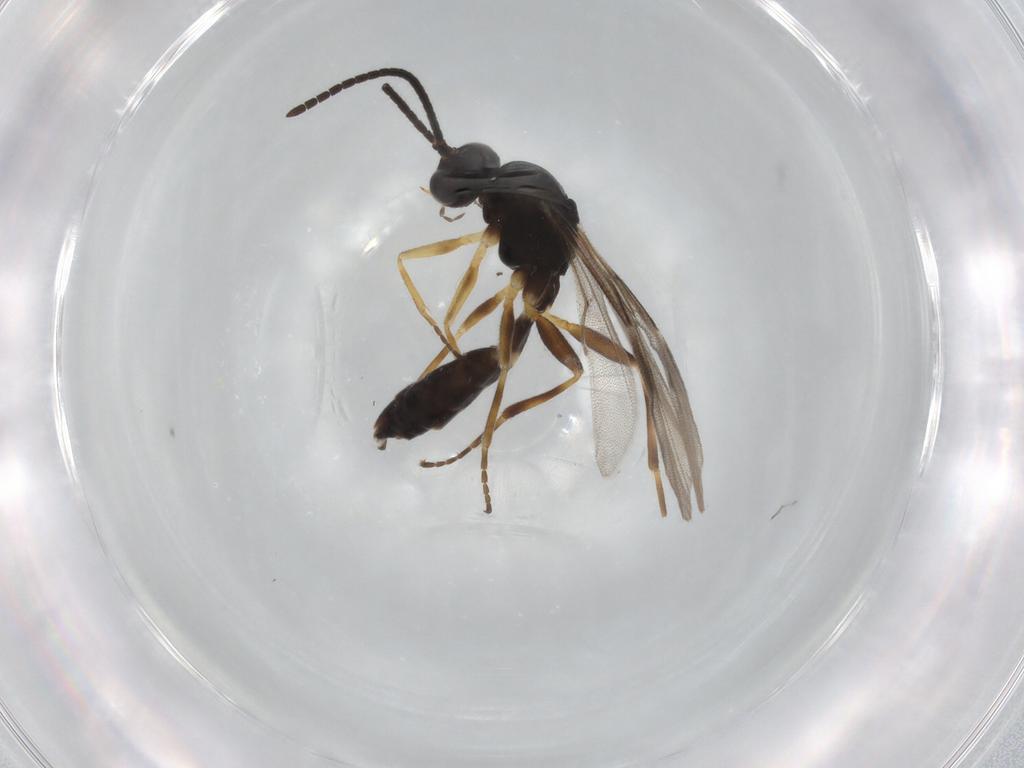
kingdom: Animalia
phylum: Arthropoda
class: Insecta
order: Hymenoptera
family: Braconidae
